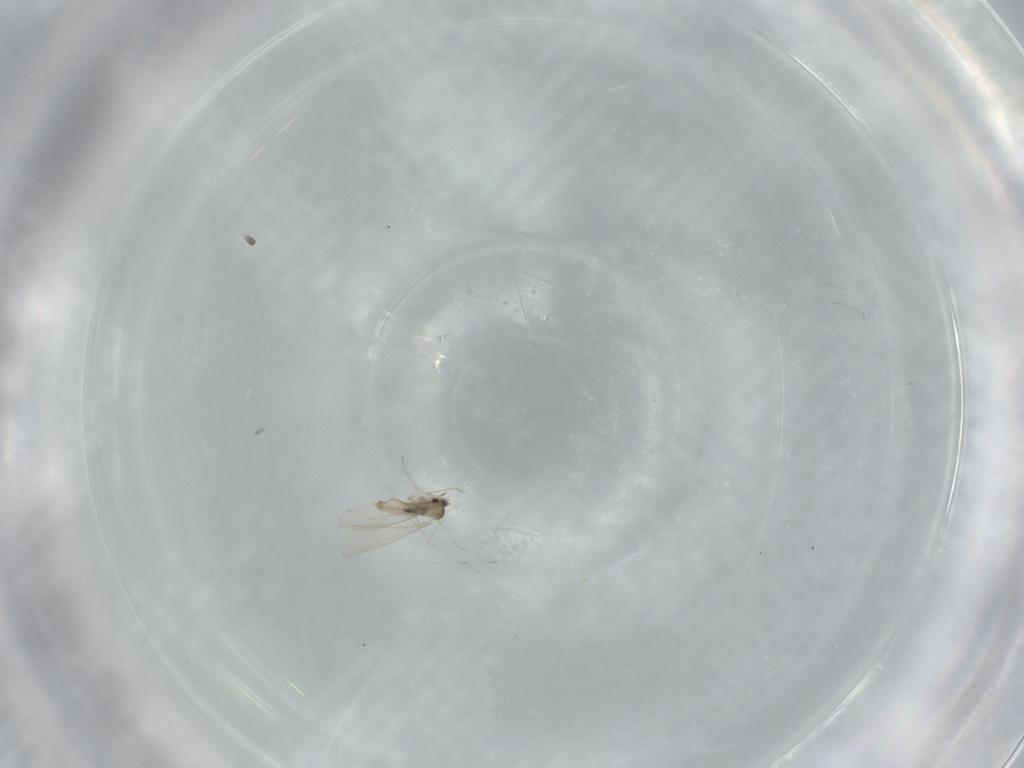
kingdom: Animalia
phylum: Arthropoda
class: Insecta
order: Diptera
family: Cecidomyiidae
